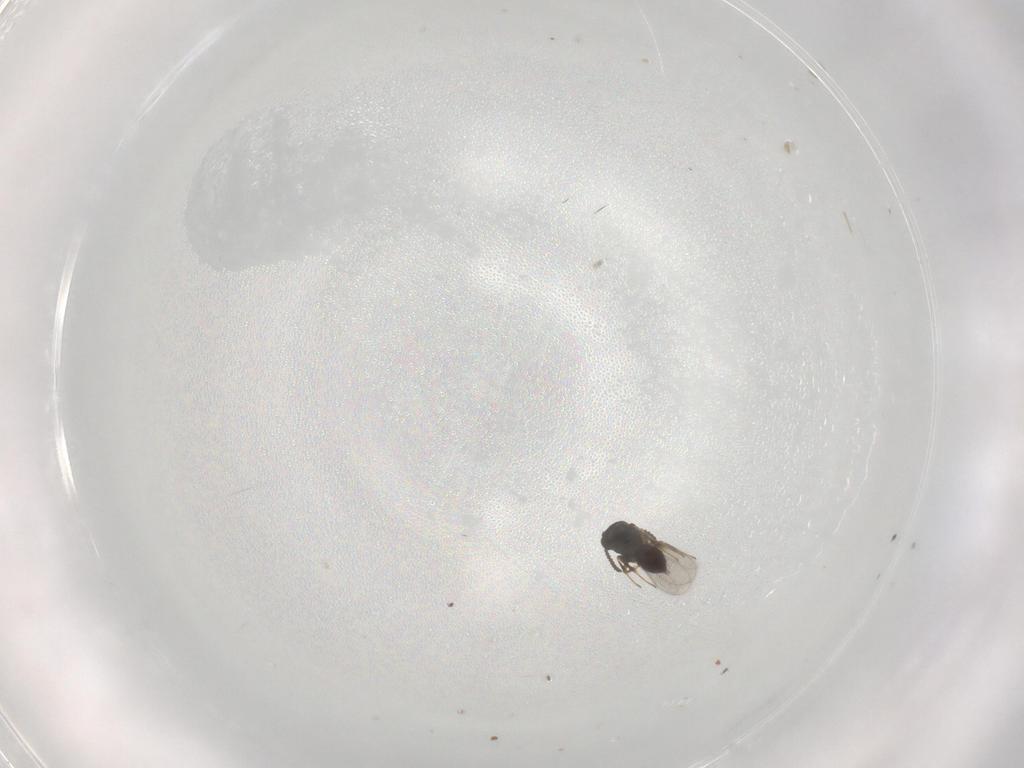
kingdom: Animalia
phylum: Arthropoda
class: Insecta
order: Hymenoptera
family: Scelionidae
